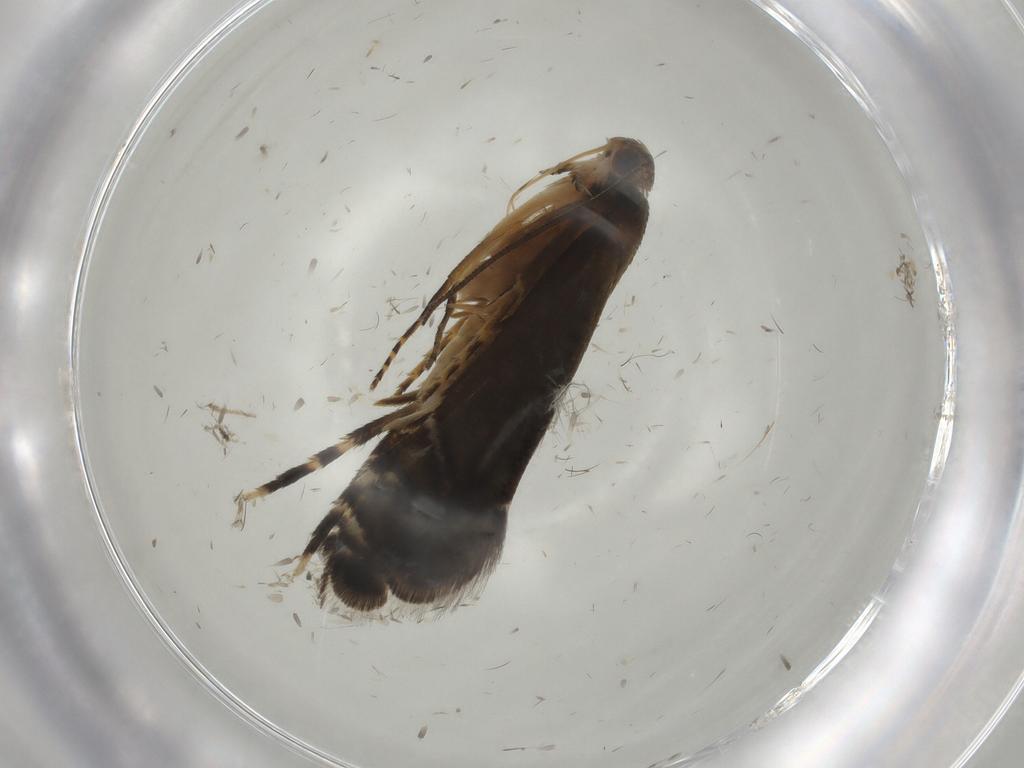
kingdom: Animalia
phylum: Arthropoda
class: Insecta
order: Lepidoptera
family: Glyphipterigidae
